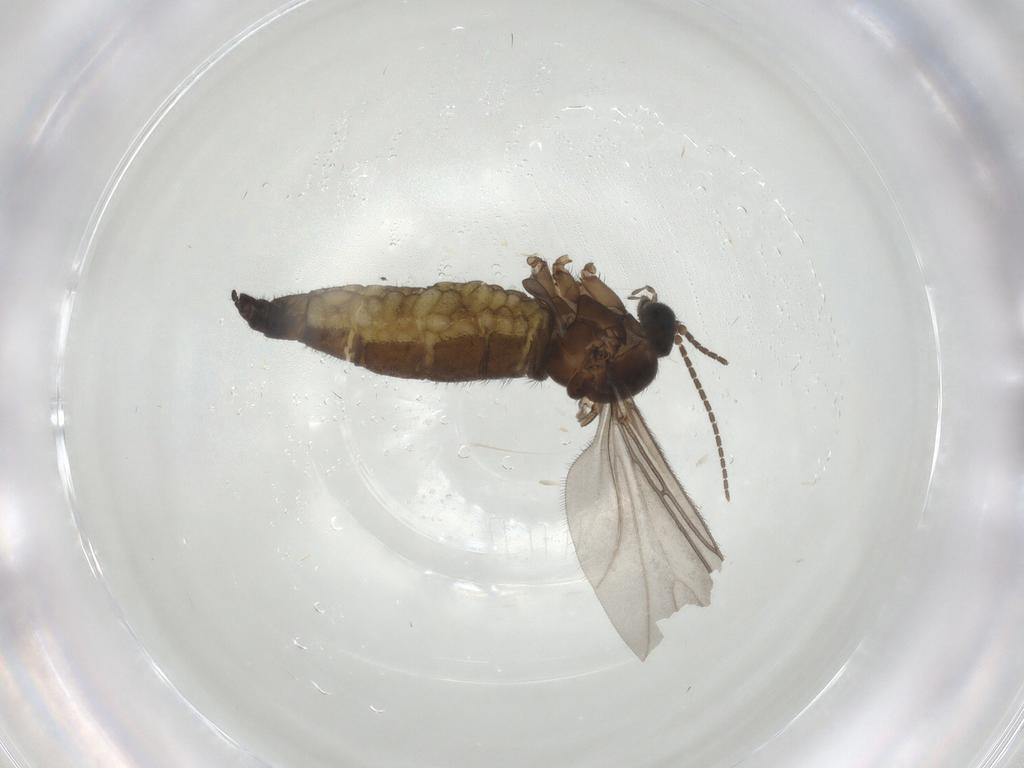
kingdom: Animalia
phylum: Arthropoda
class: Insecta
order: Diptera
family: Sciaridae
